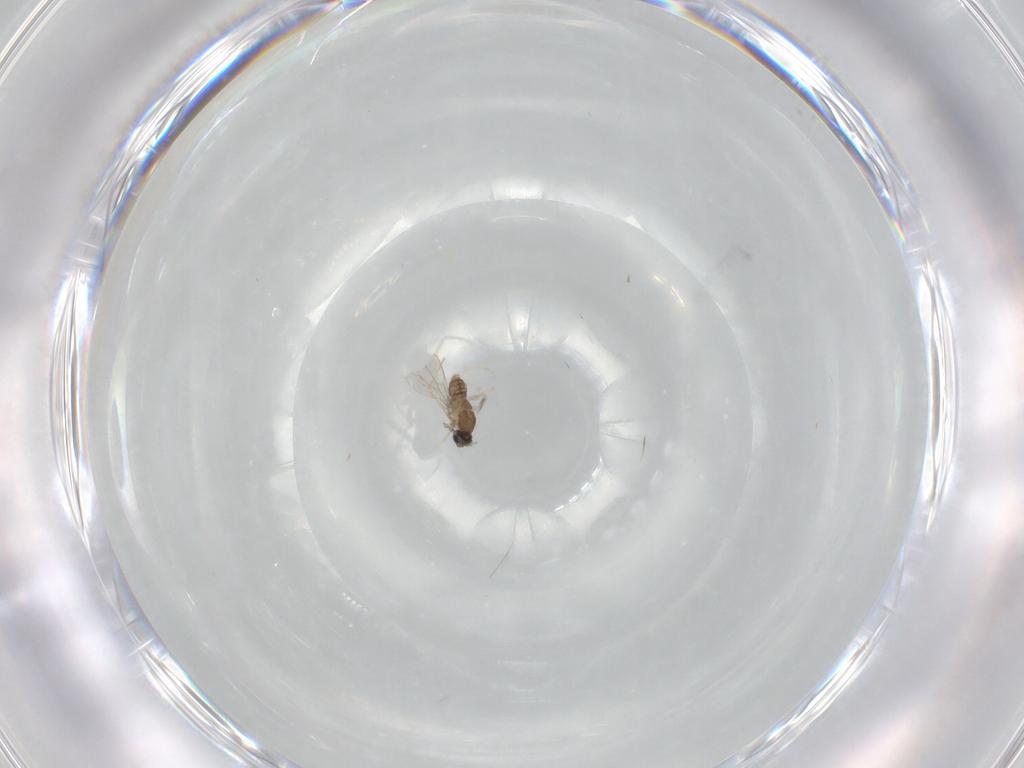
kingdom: Animalia
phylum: Arthropoda
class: Insecta
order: Diptera
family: Cecidomyiidae
